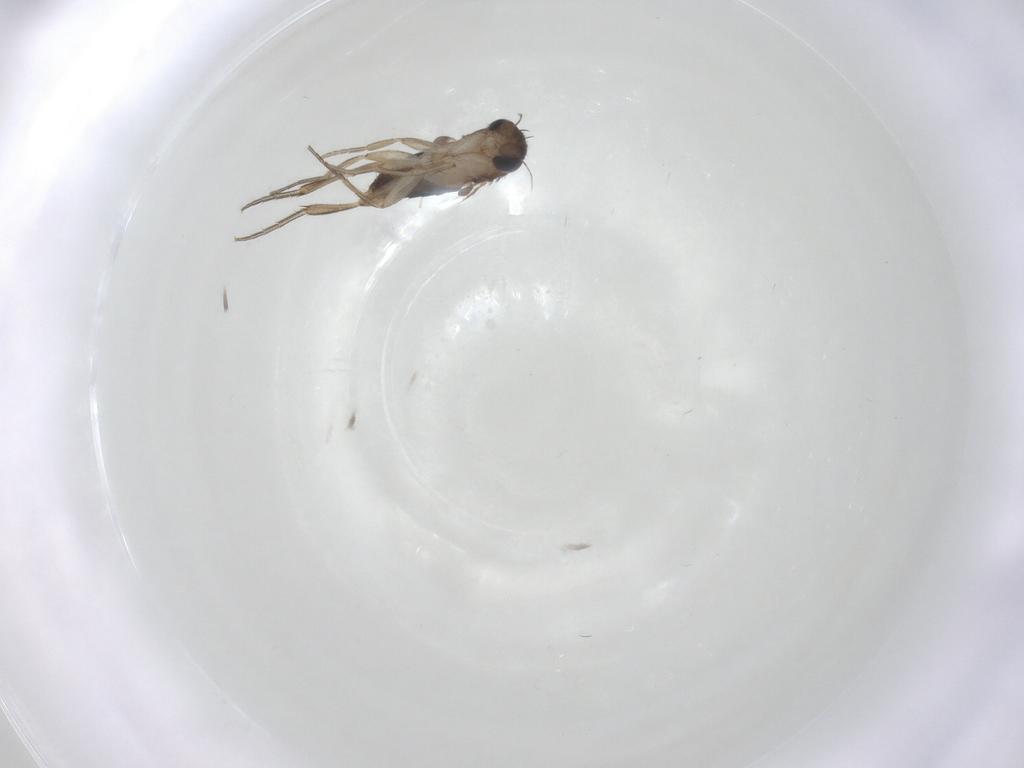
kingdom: Animalia
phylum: Arthropoda
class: Insecta
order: Diptera
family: Phoridae
